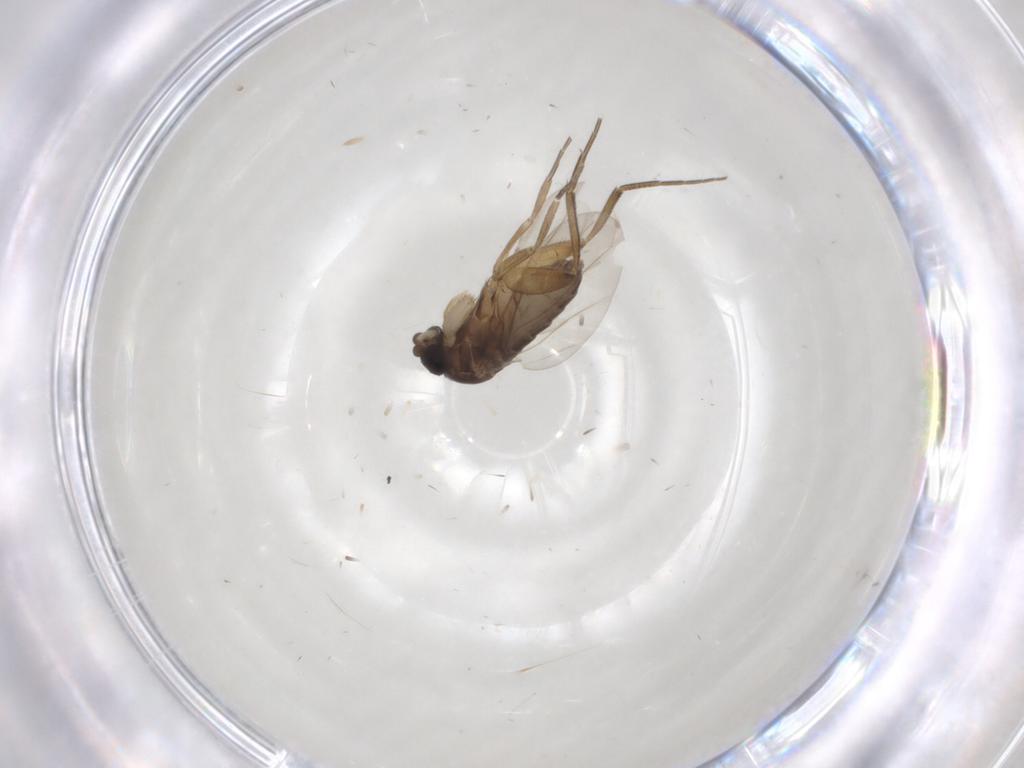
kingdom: Animalia
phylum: Arthropoda
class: Insecta
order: Diptera
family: Phoridae
